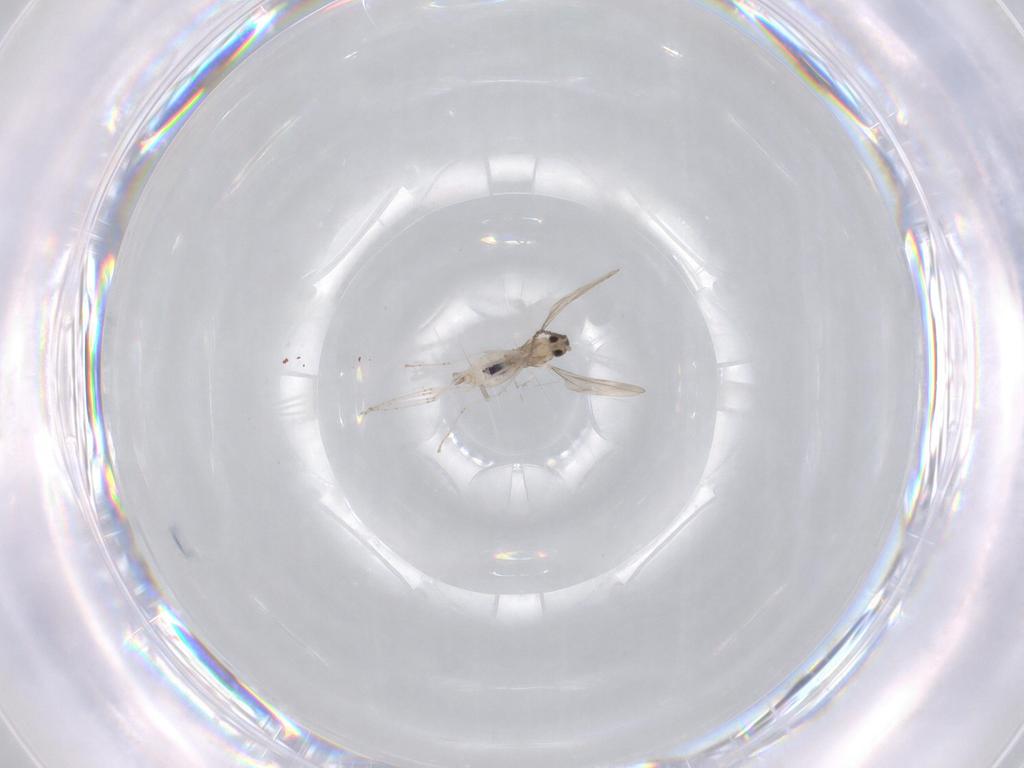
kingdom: Animalia
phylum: Arthropoda
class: Insecta
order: Diptera
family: Cecidomyiidae
